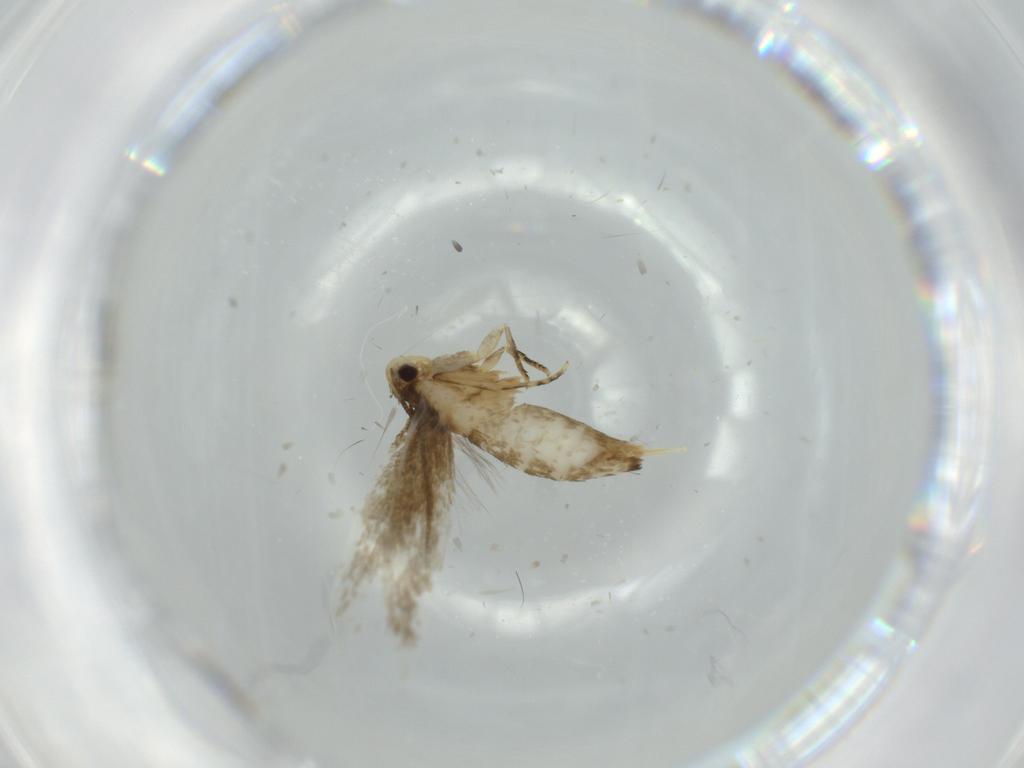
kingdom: Animalia
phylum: Arthropoda
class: Insecta
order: Lepidoptera
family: Tineidae
